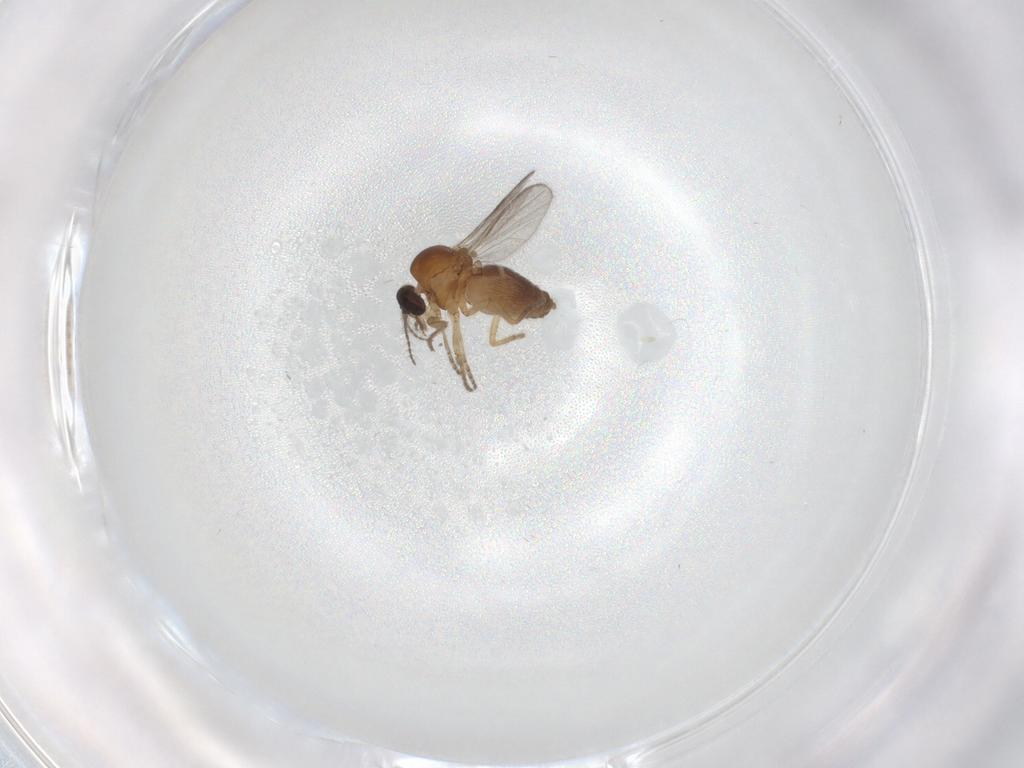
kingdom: Animalia
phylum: Arthropoda
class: Insecta
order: Diptera
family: Ceratopogonidae
